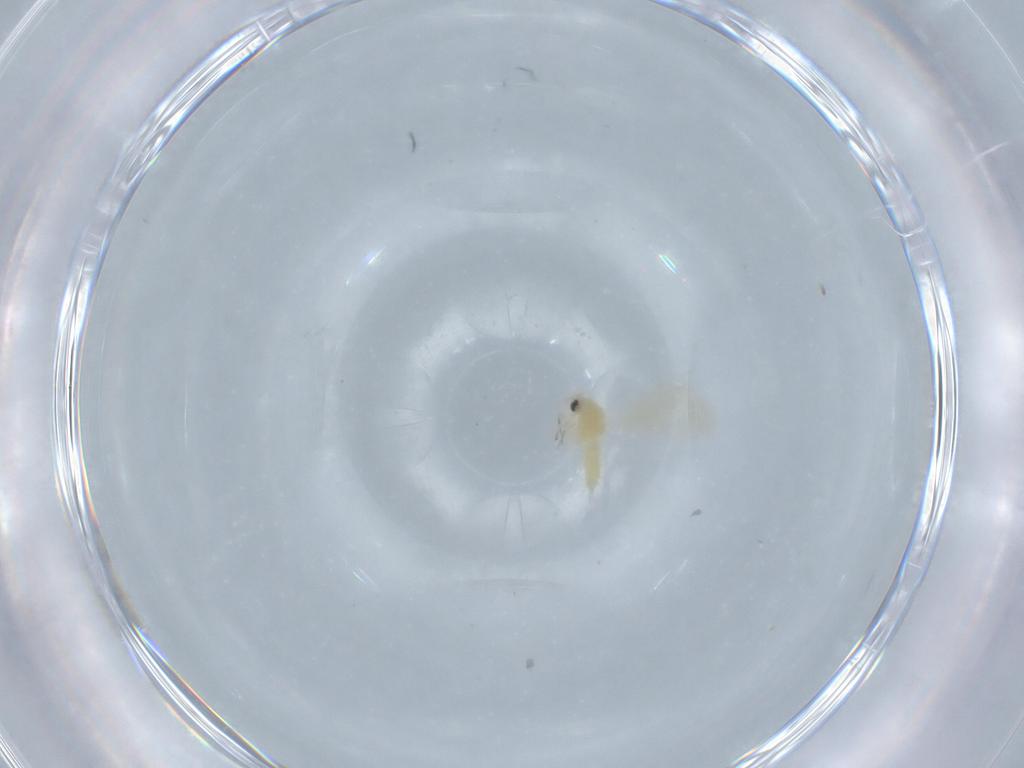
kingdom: Animalia
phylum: Arthropoda
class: Insecta
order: Hemiptera
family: Aleyrodidae
